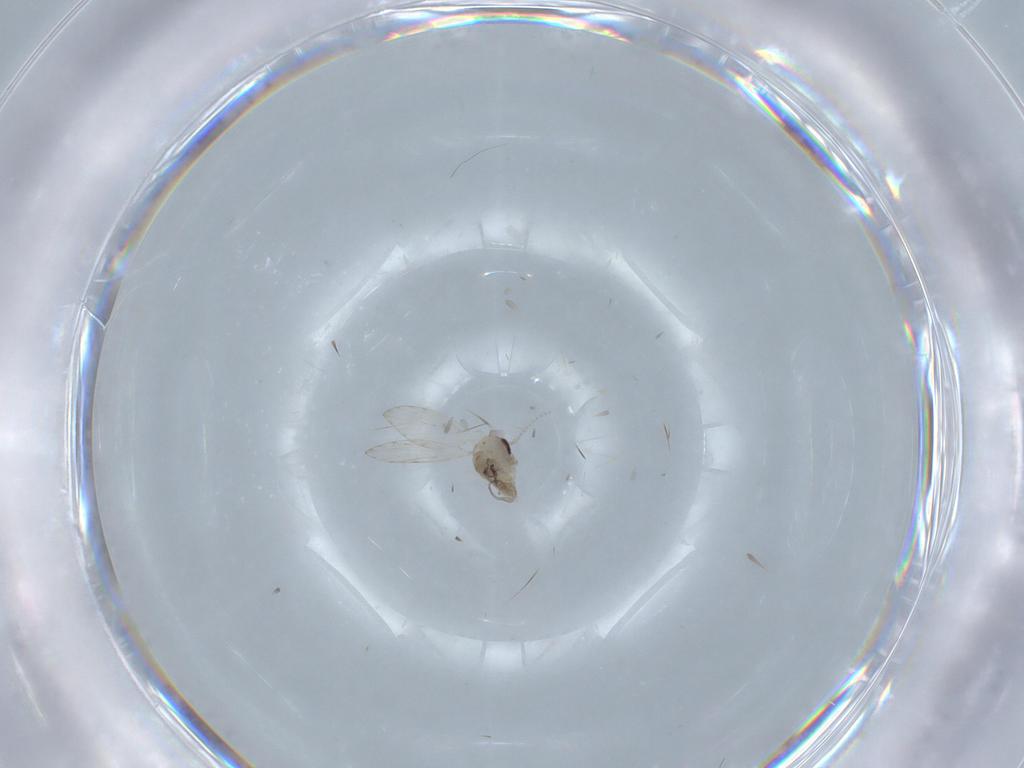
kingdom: Animalia
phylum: Arthropoda
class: Insecta
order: Diptera
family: Psychodidae
